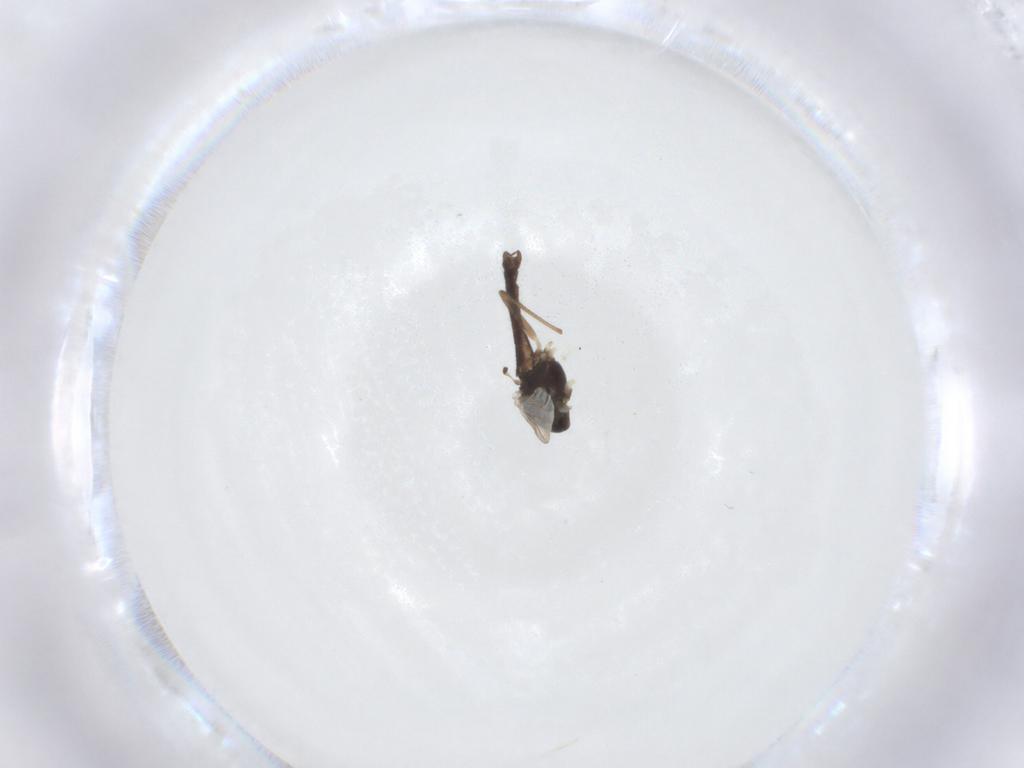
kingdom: Animalia
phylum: Arthropoda
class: Insecta
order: Diptera
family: Chironomidae
